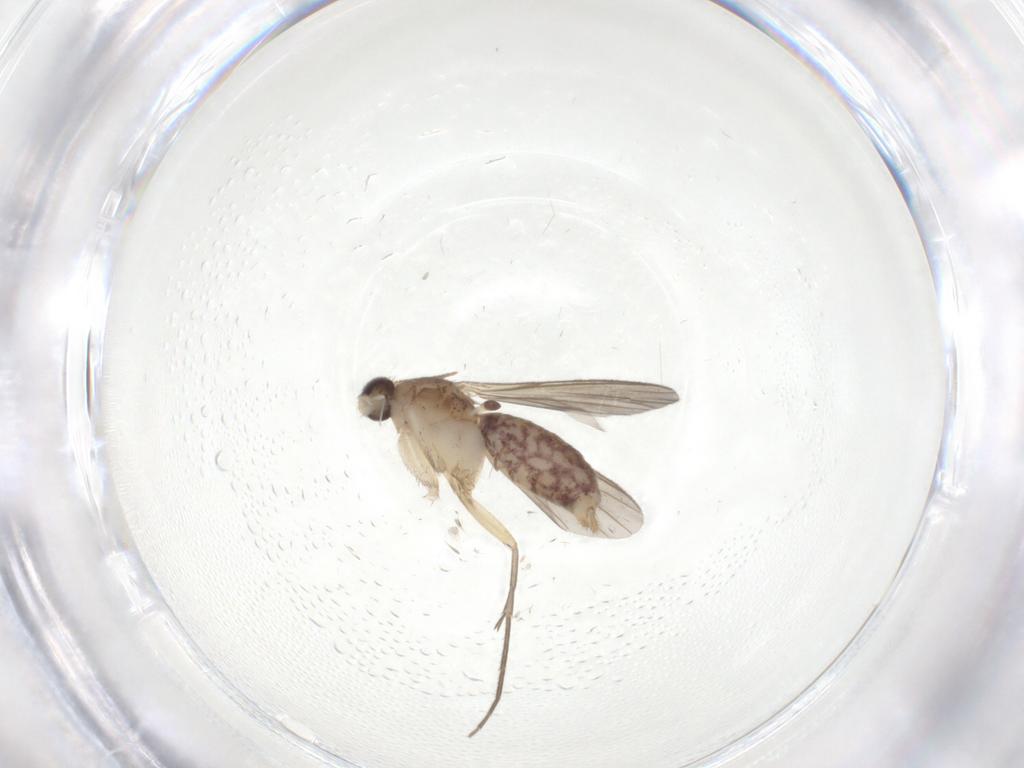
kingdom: Animalia
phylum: Arthropoda
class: Insecta
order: Diptera
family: Mycetophilidae
